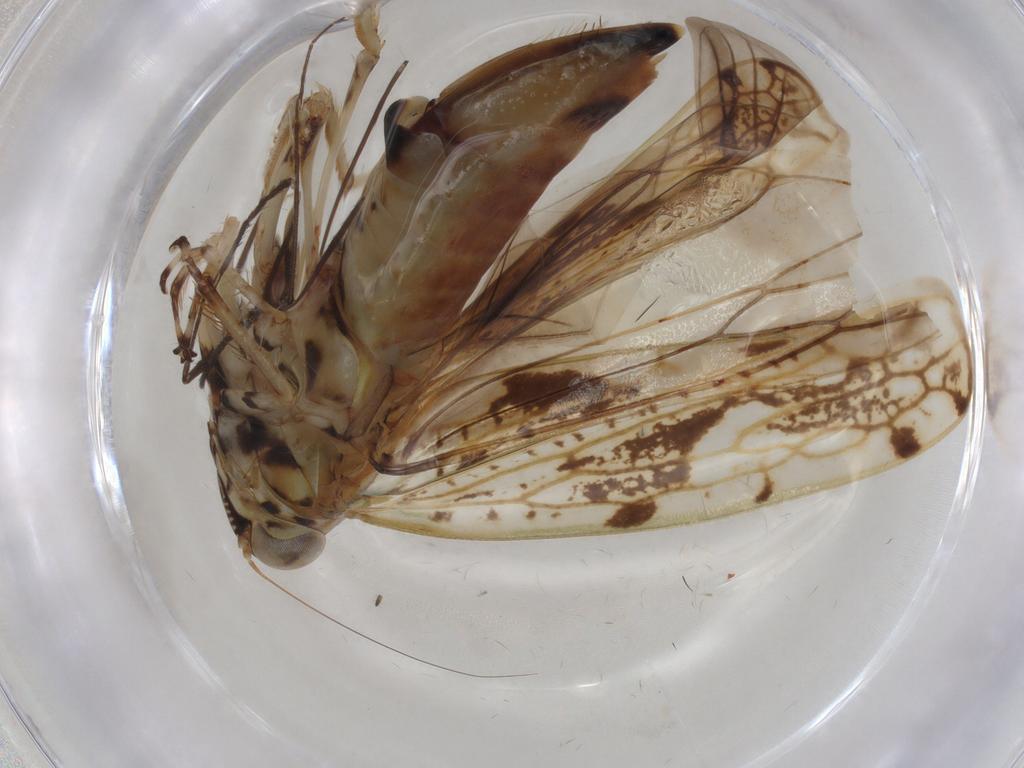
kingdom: Animalia
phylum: Arthropoda
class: Insecta
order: Hemiptera
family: Cicadellidae
